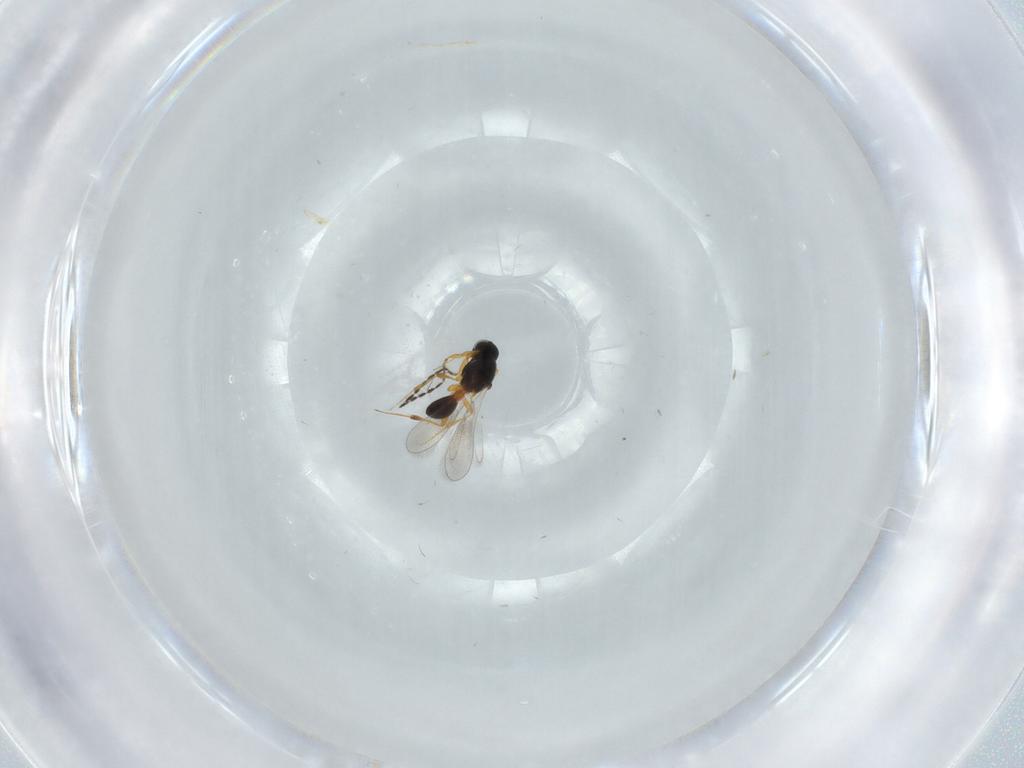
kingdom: Animalia
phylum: Arthropoda
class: Insecta
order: Hymenoptera
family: Platygastridae
